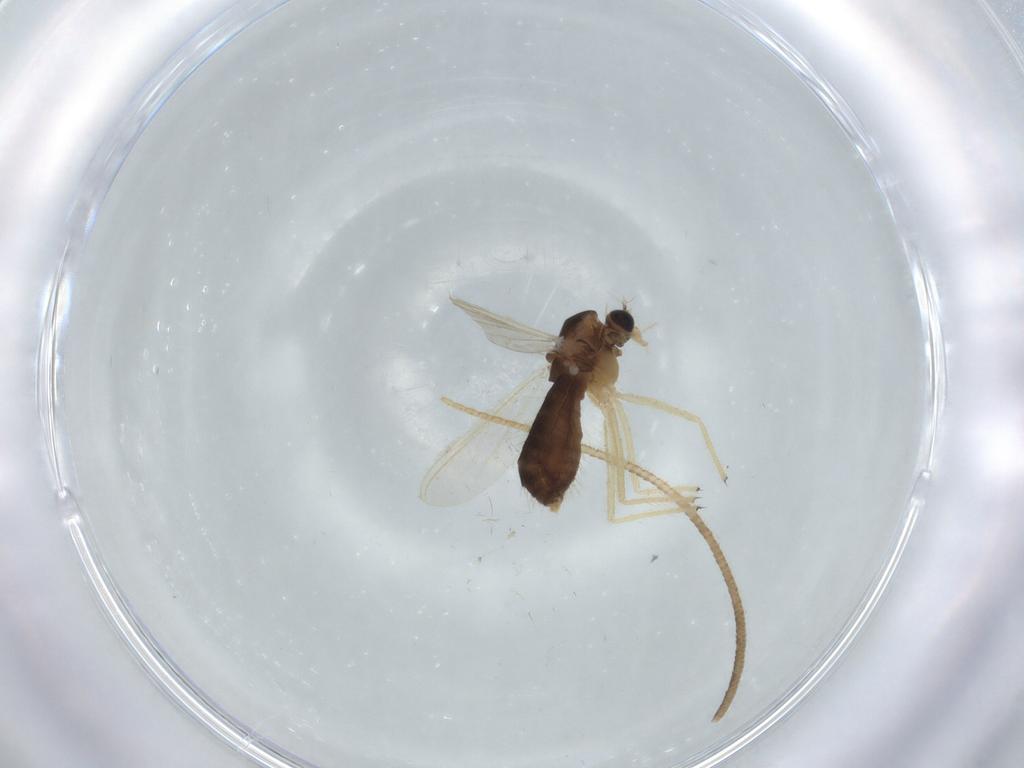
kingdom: Animalia
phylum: Arthropoda
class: Insecta
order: Diptera
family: Chironomidae
